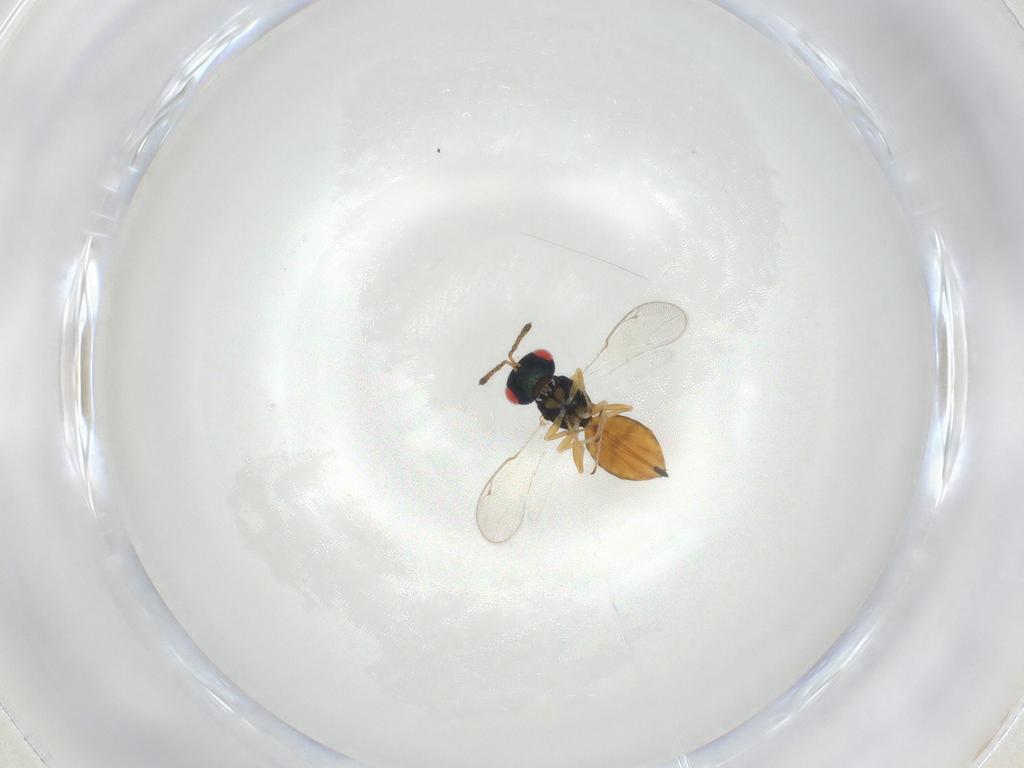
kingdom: Animalia
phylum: Arthropoda
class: Insecta
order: Hymenoptera
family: Pteromalidae
